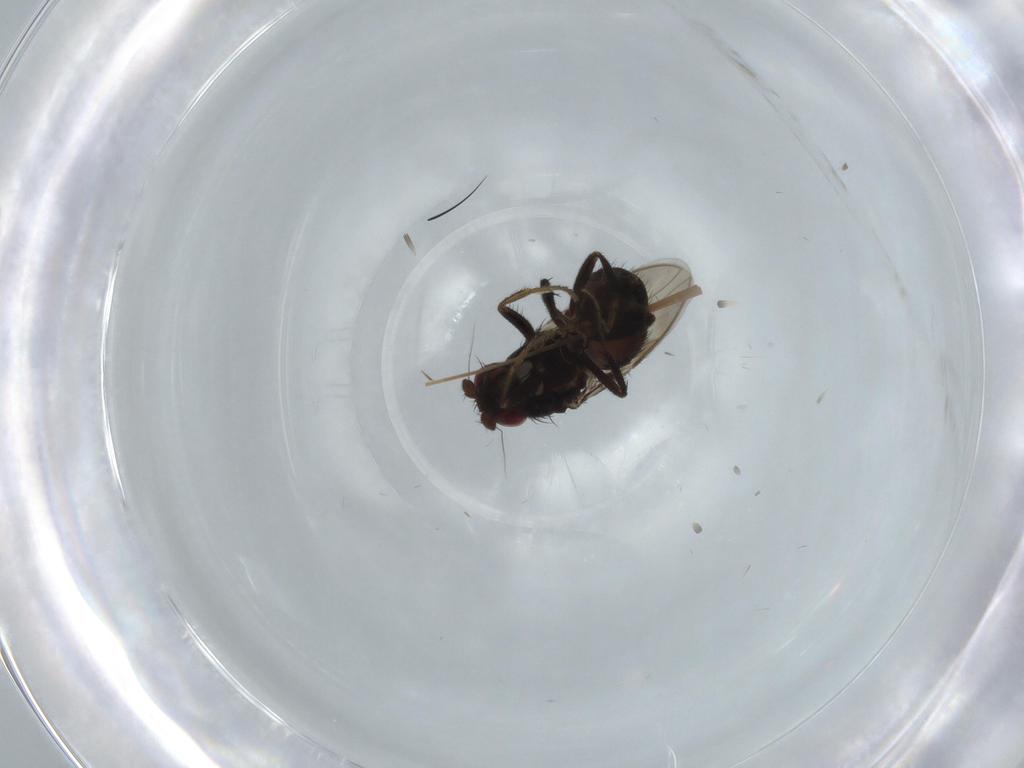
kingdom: Animalia
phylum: Arthropoda
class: Insecta
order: Diptera
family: Sphaeroceridae
